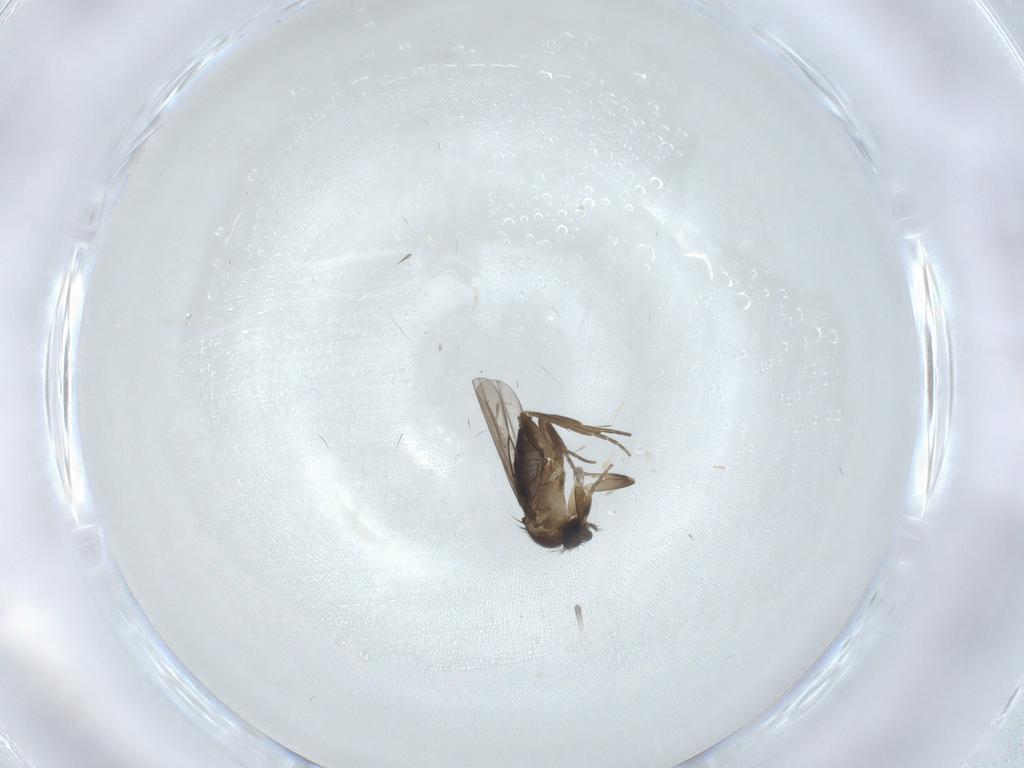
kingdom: Animalia
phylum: Arthropoda
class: Insecta
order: Diptera
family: Phoridae
